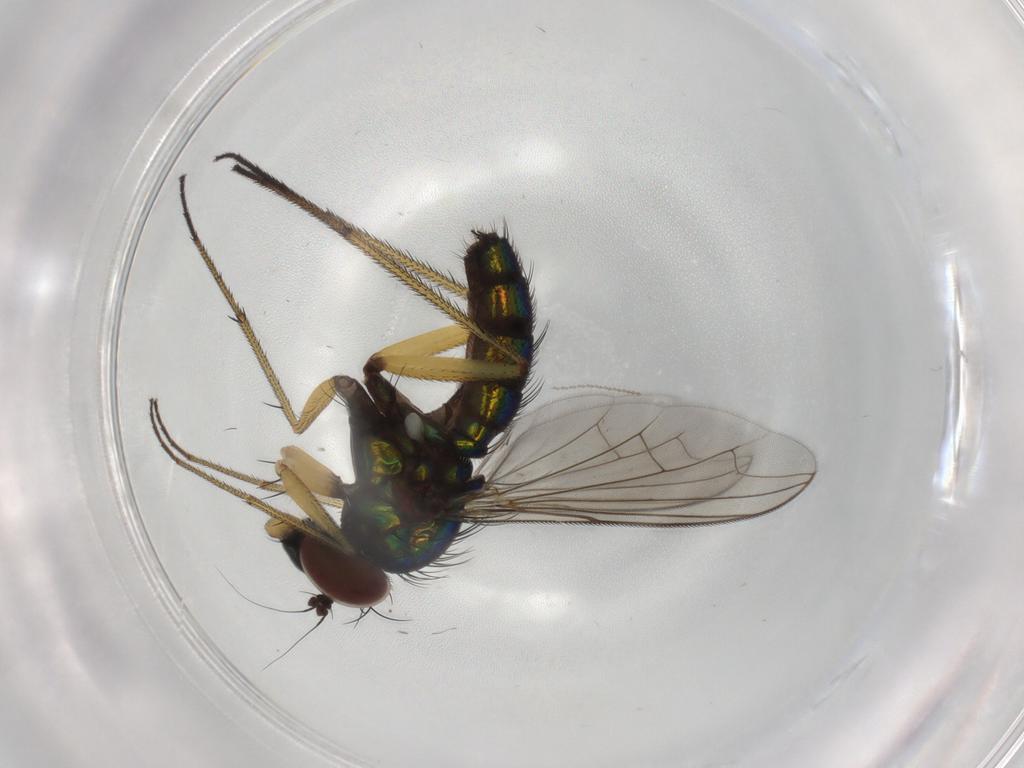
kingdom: Animalia
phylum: Arthropoda
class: Insecta
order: Diptera
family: Dolichopodidae
